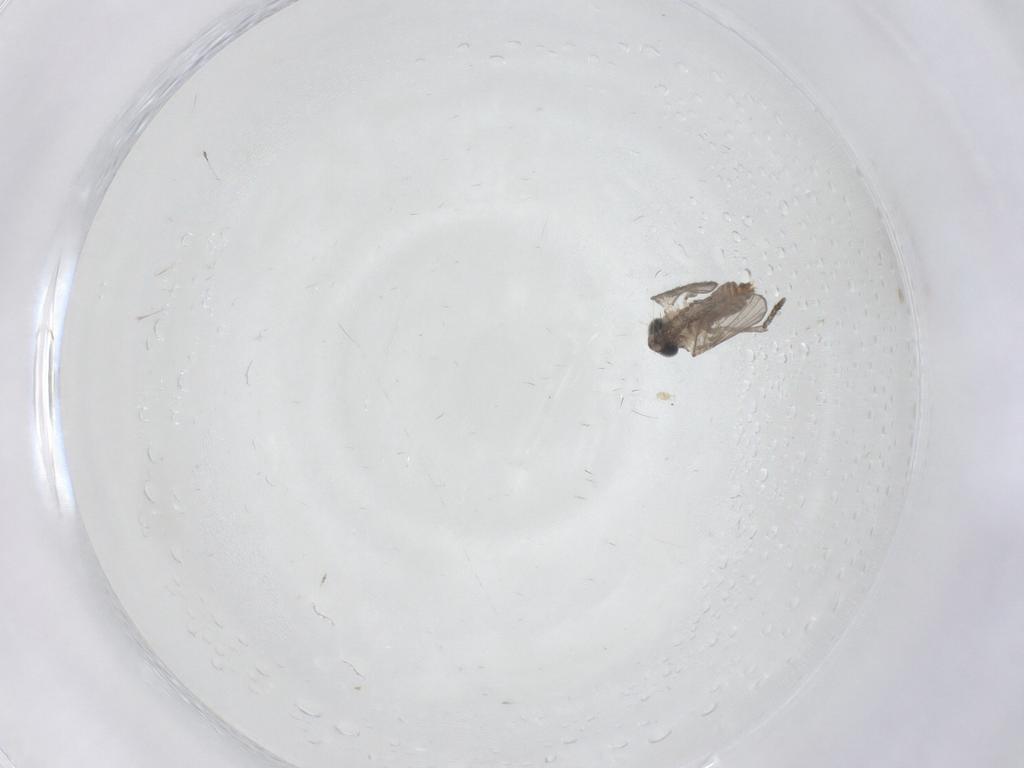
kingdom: Animalia
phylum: Arthropoda
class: Insecta
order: Diptera
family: Psychodidae
